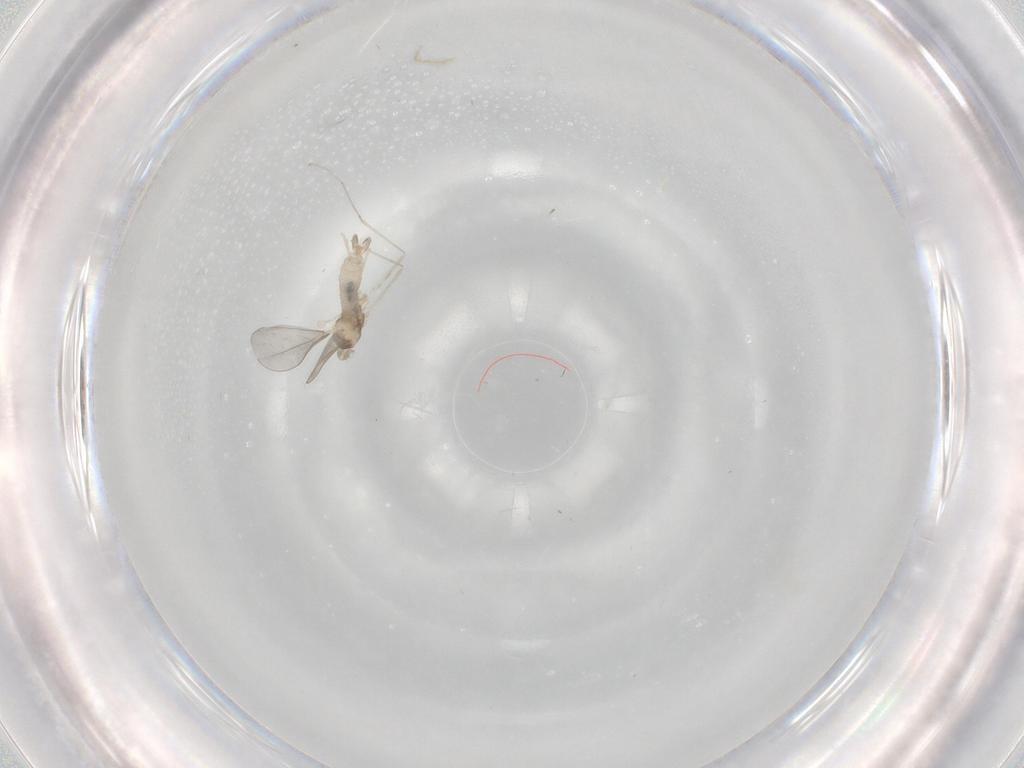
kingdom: Animalia
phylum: Arthropoda
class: Insecta
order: Diptera
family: Cecidomyiidae
